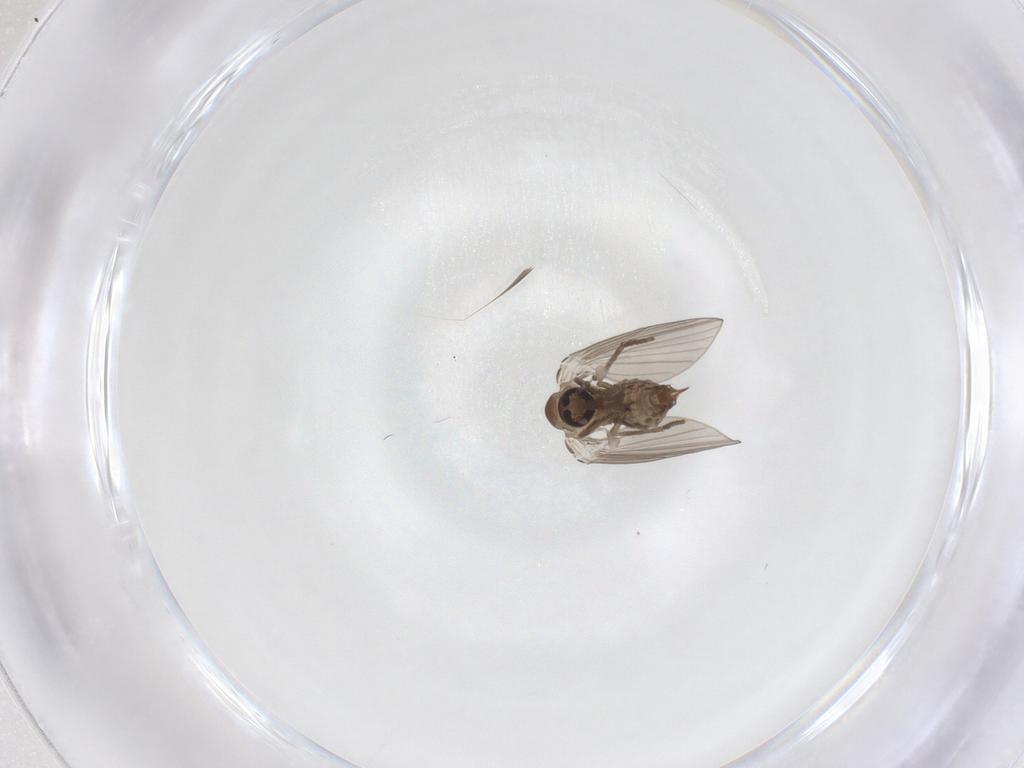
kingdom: Animalia
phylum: Arthropoda
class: Insecta
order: Diptera
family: Psychodidae
